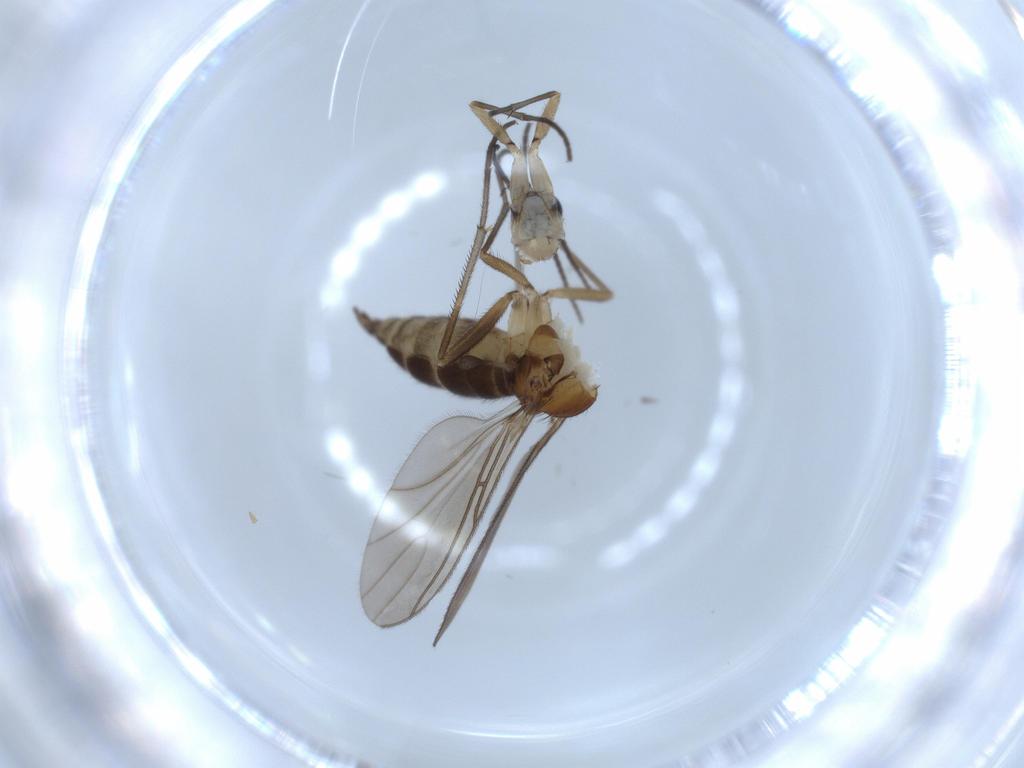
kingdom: Animalia
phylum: Arthropoda
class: Insecta
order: Diptera
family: Sciaridae
